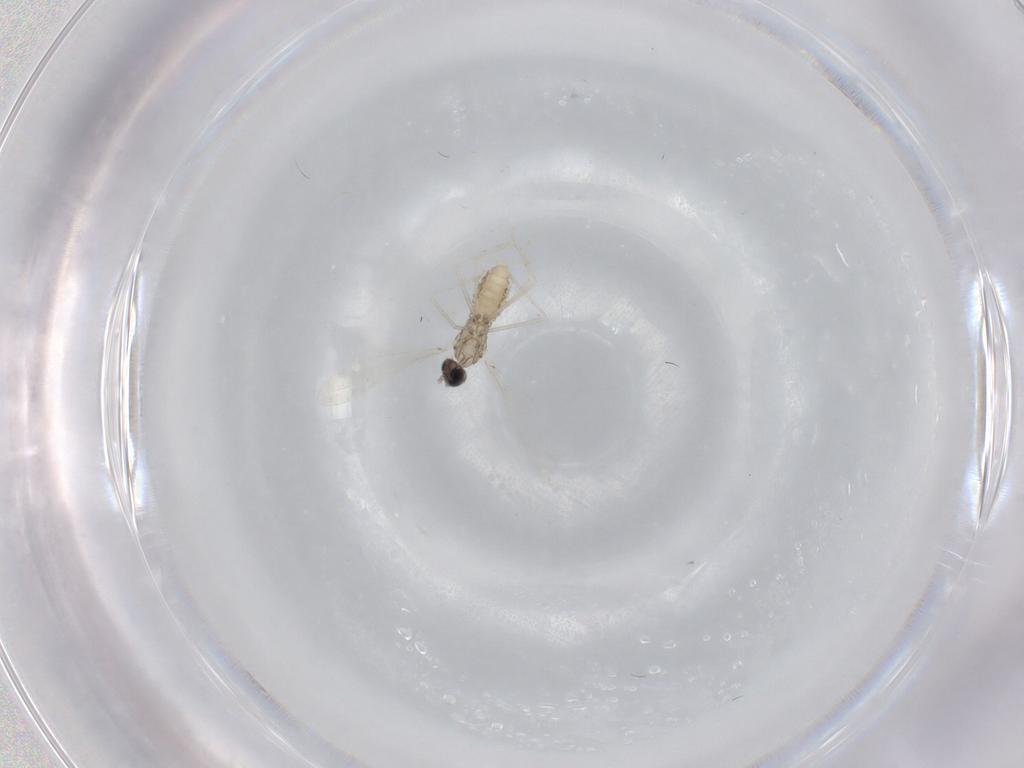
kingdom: Animalia
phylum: Arthropoda
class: Insecta
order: Diptera
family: Cecidomyiidae
